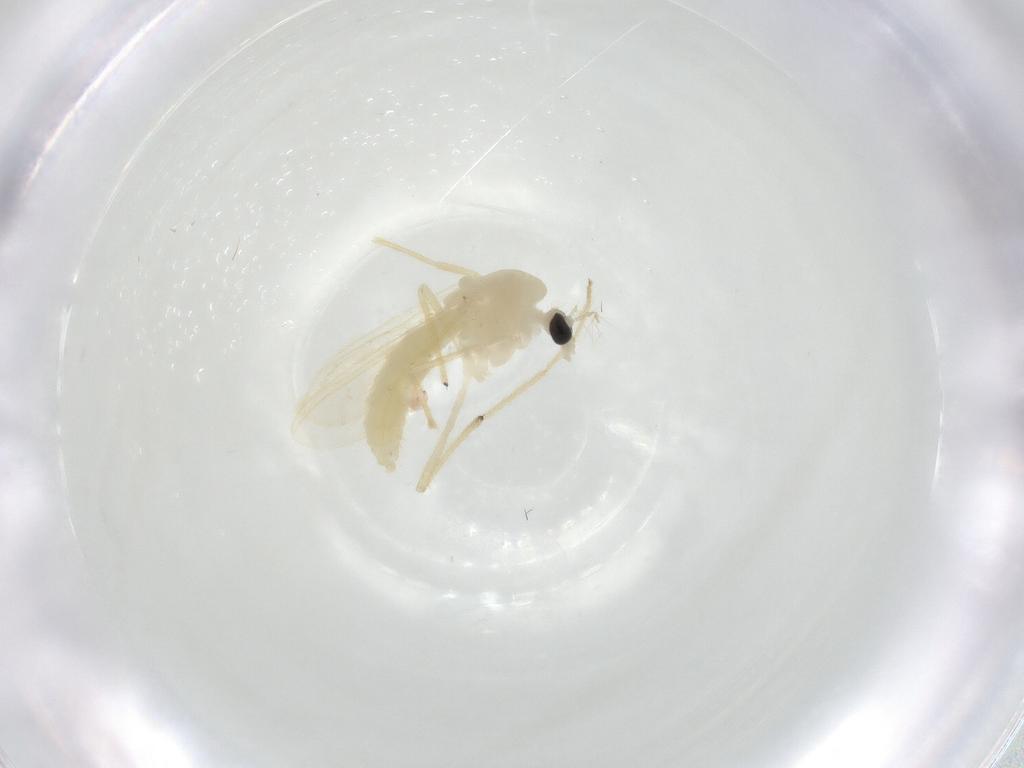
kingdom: Animalia
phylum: Arthropoda
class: Insecta
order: Diptera
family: Chironomidae
